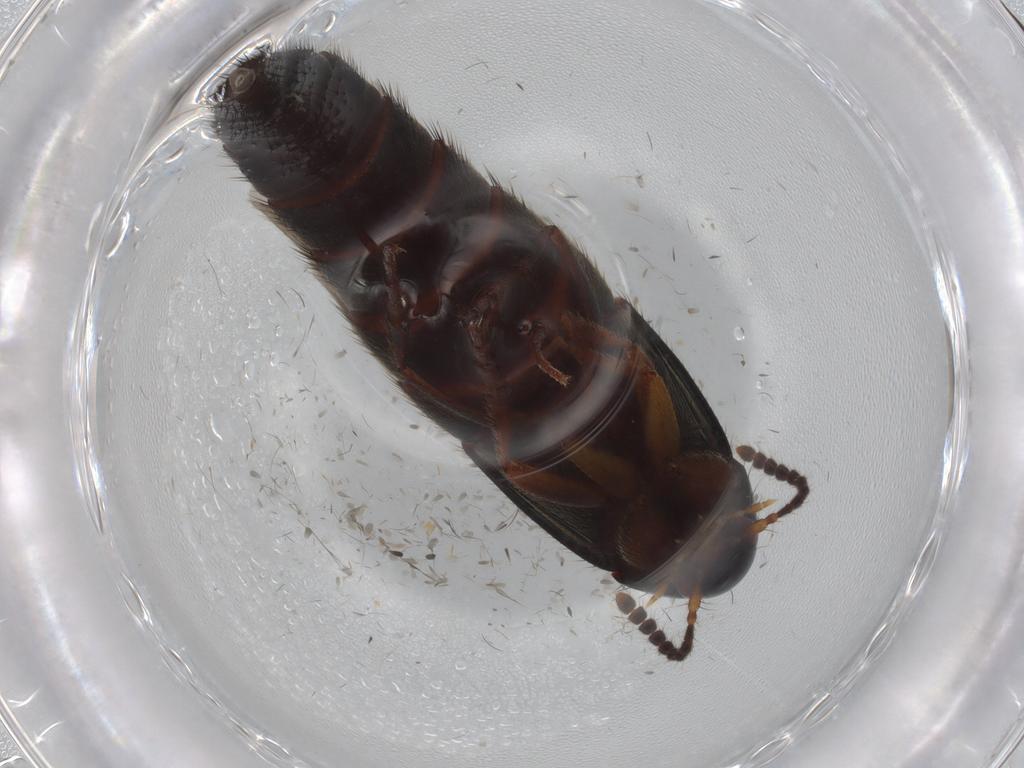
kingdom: Animalia
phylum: Arthropoda
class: Insecta
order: Coleoptera
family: Staphylinidae
